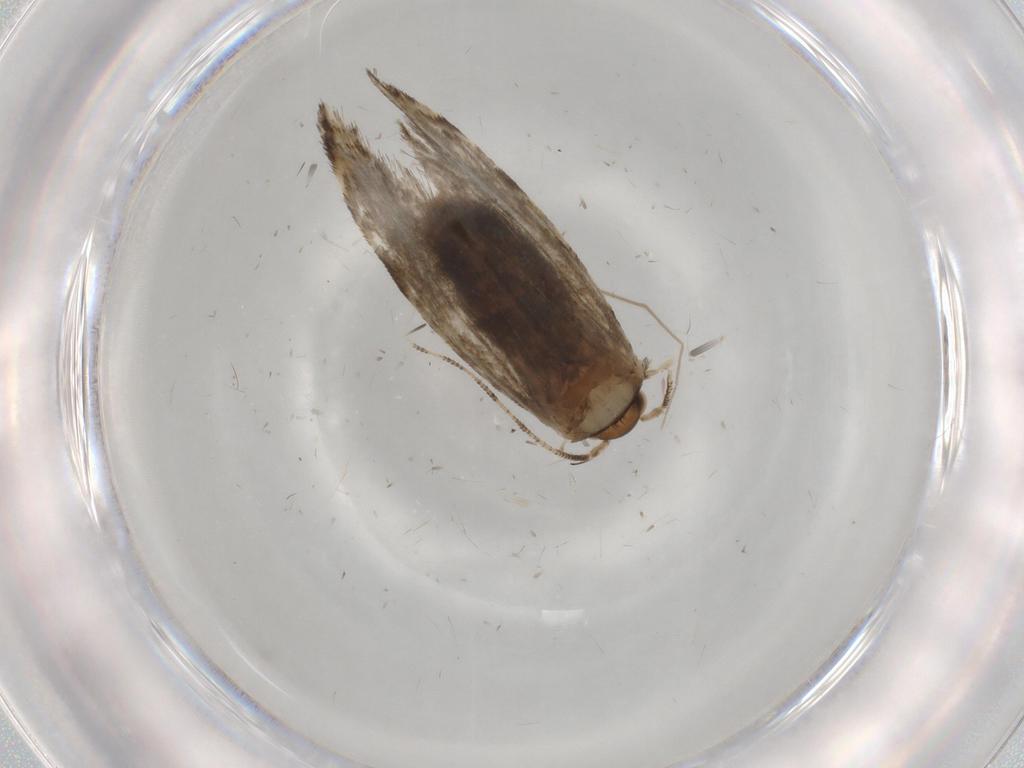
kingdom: Animalia
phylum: Arthropoda
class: Insecta
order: Lepidoptera
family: Tineidae
